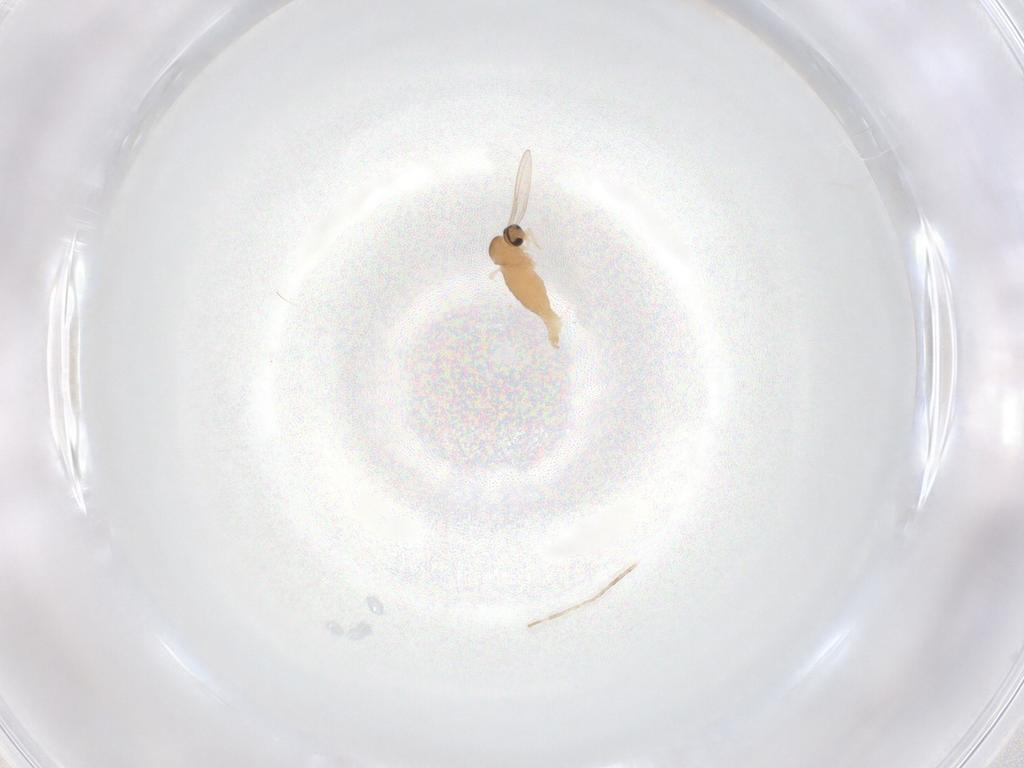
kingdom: Animalia
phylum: Arthropoda
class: Insecta
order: Diptera
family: Cecidomyiidae
